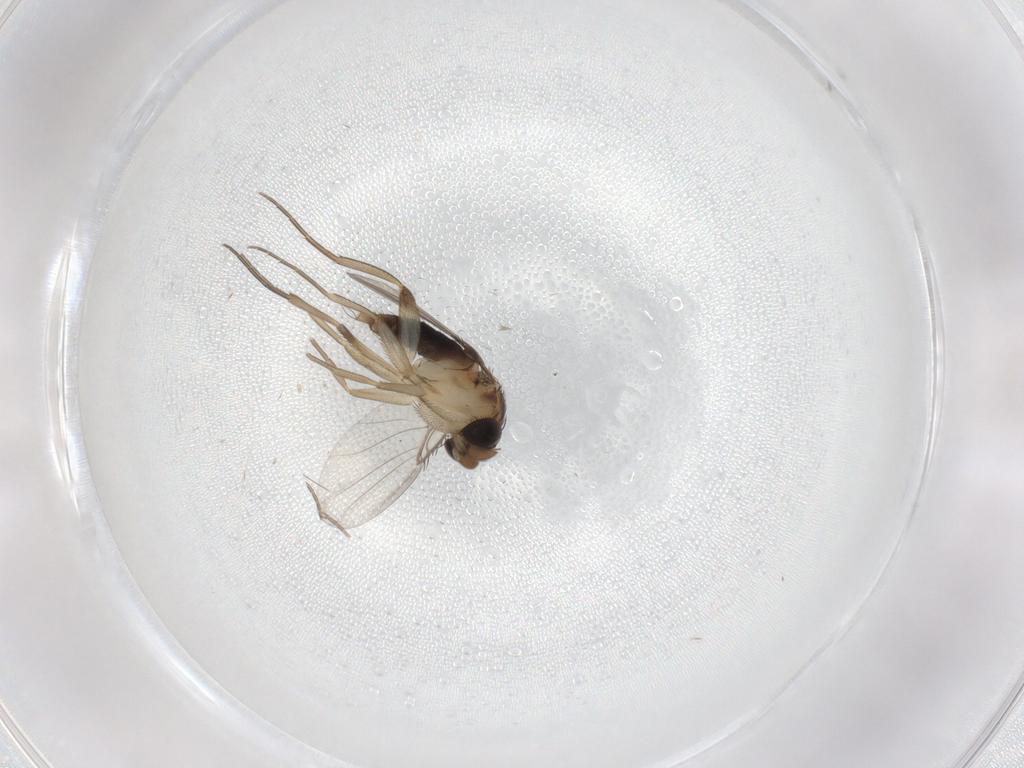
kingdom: Animalia
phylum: Arthropoda
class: Insecta
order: Diptera
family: Phoridae
